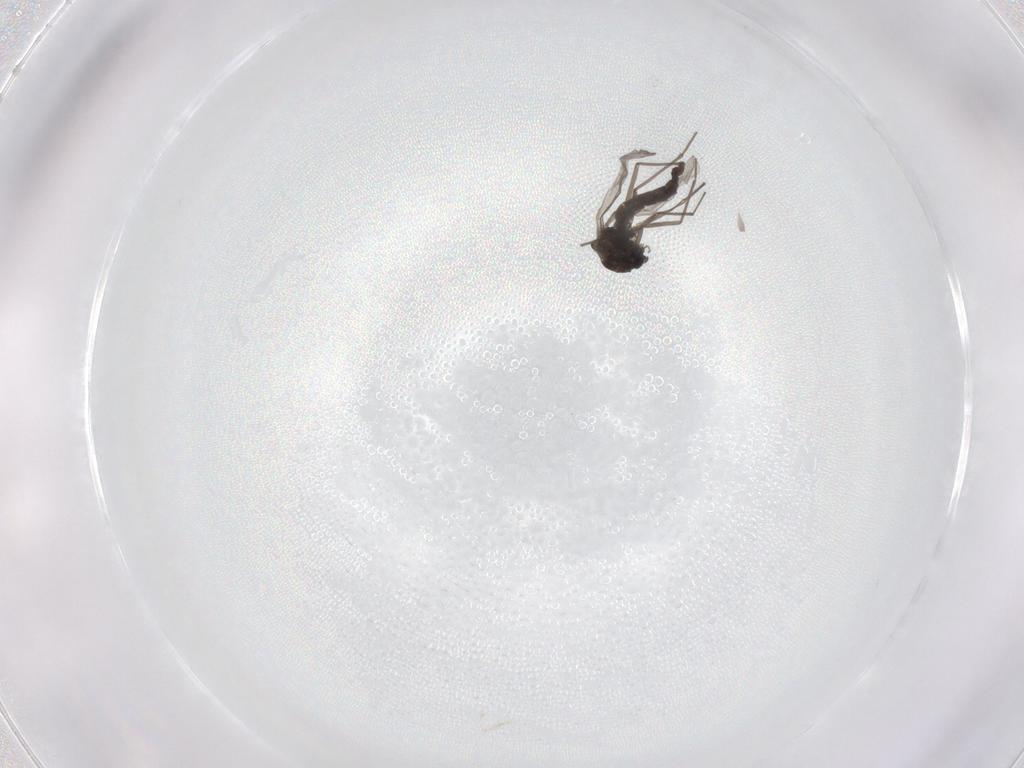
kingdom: Animalia
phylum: Arthropoda
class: Insecta
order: Diptera
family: Chironomidae
